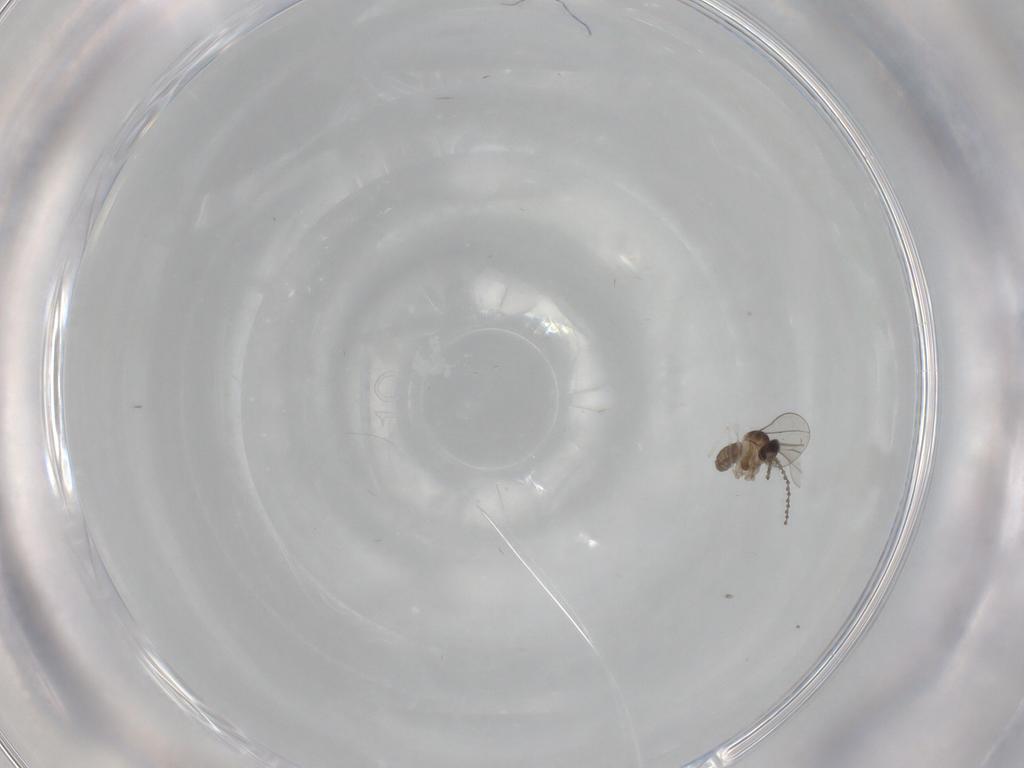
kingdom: Animalia
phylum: Arthropoda
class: Insecta
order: Diptera
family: Cecidomyiidae
